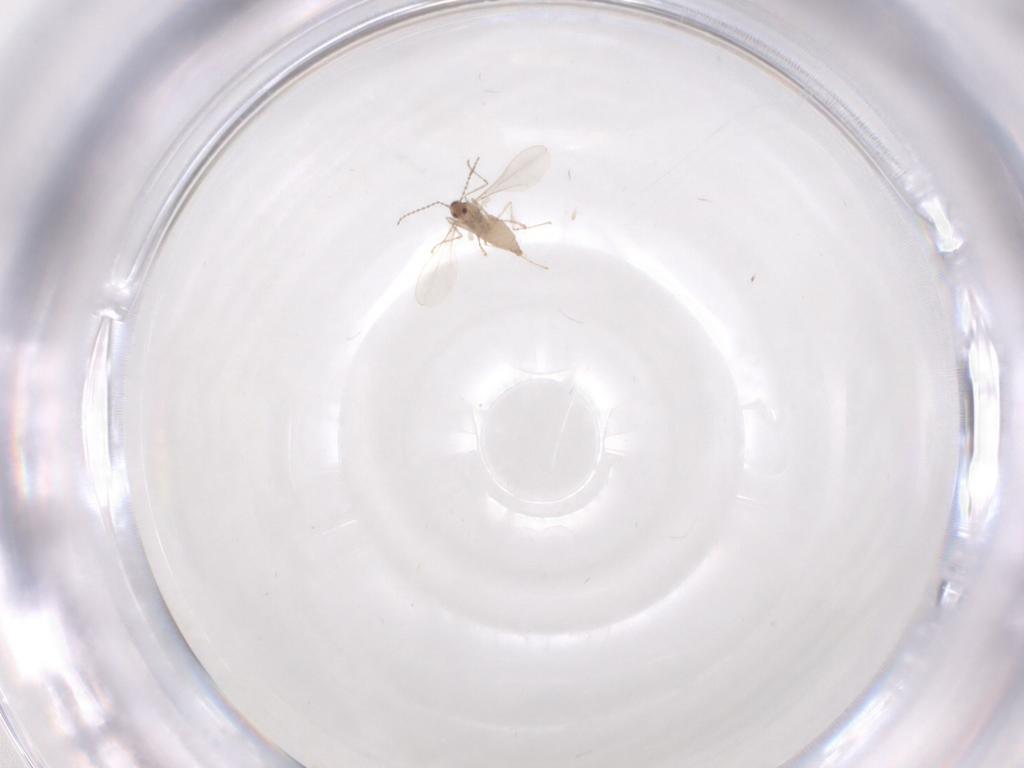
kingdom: Animalia
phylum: Arthropoda
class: Insecta
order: Diptera
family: Cecidomyiidae
